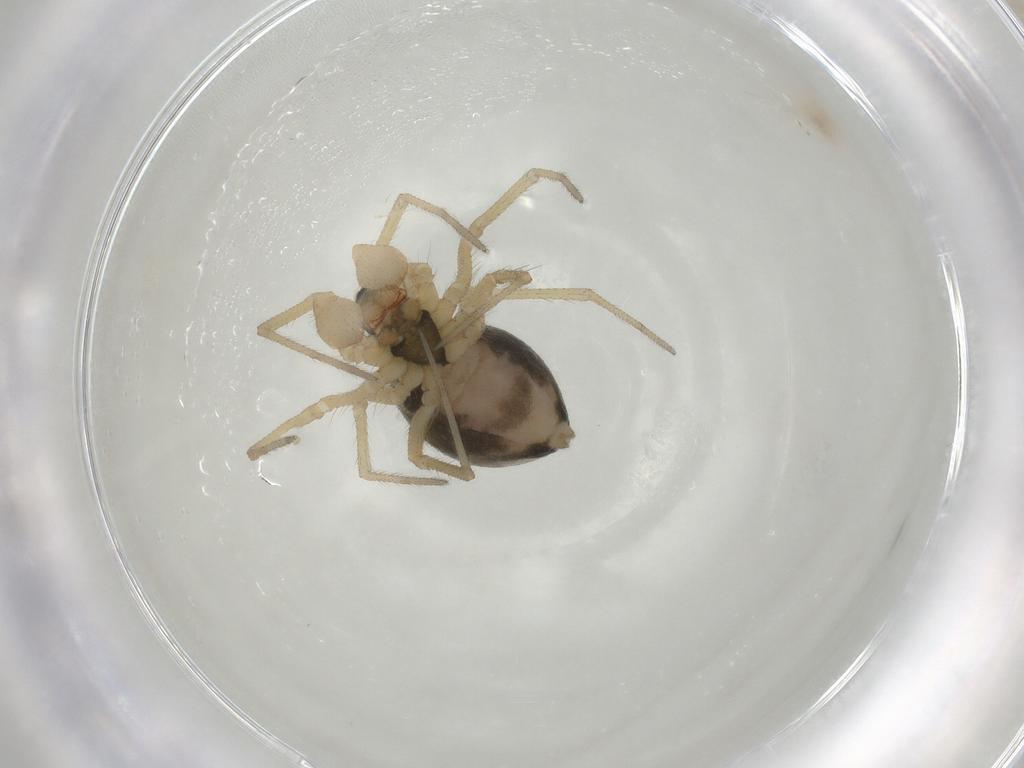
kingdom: Animalia
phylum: Arthropoda
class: Arachnida
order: Araneae
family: Linyphiidae
